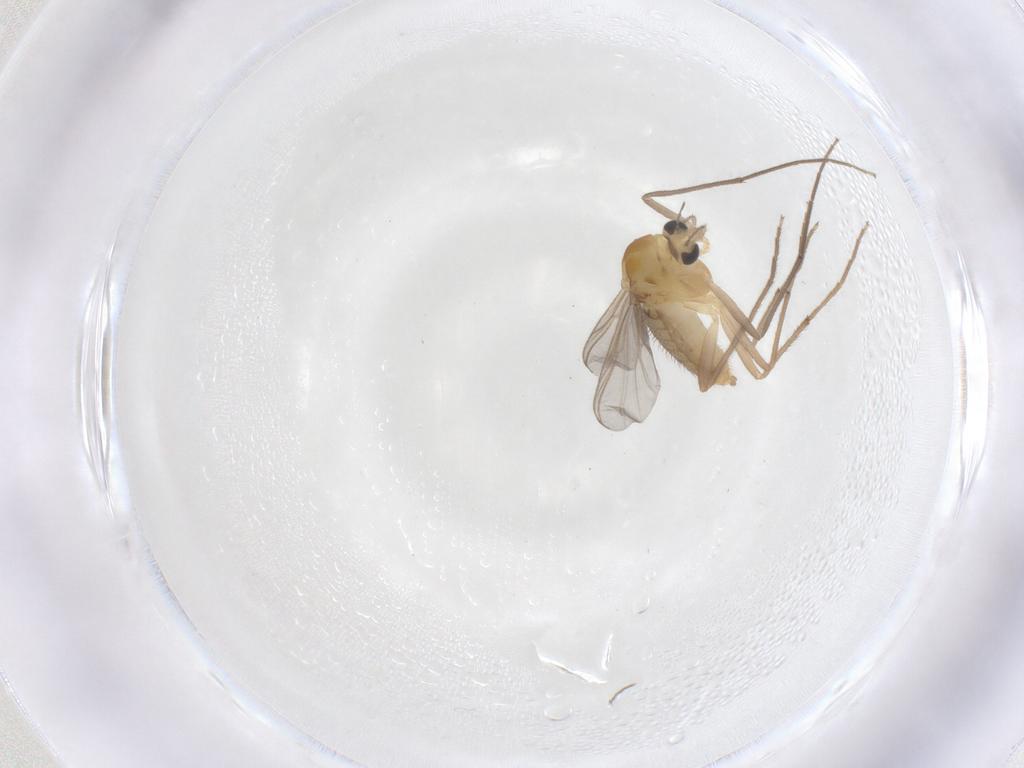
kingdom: Animalia
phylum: Arthropoda
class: Insecta
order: Diptera
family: Chironomidae
